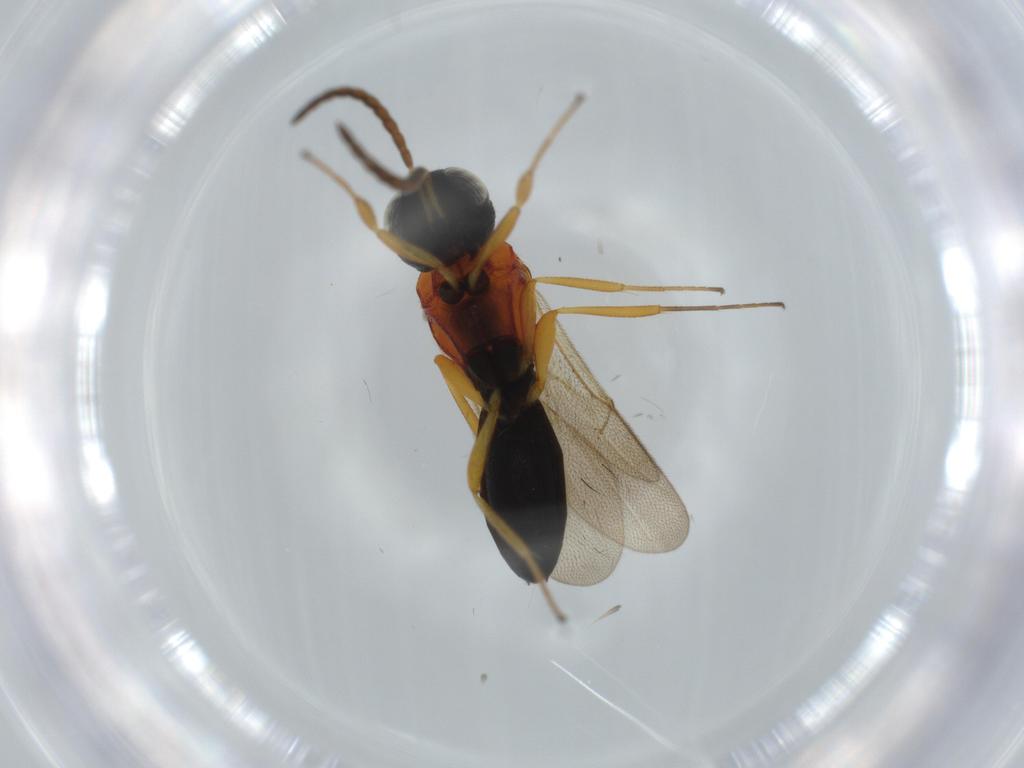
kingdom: Animalia
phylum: Arthropoda
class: Insecta
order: Hymenoptera
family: Scelionidae
